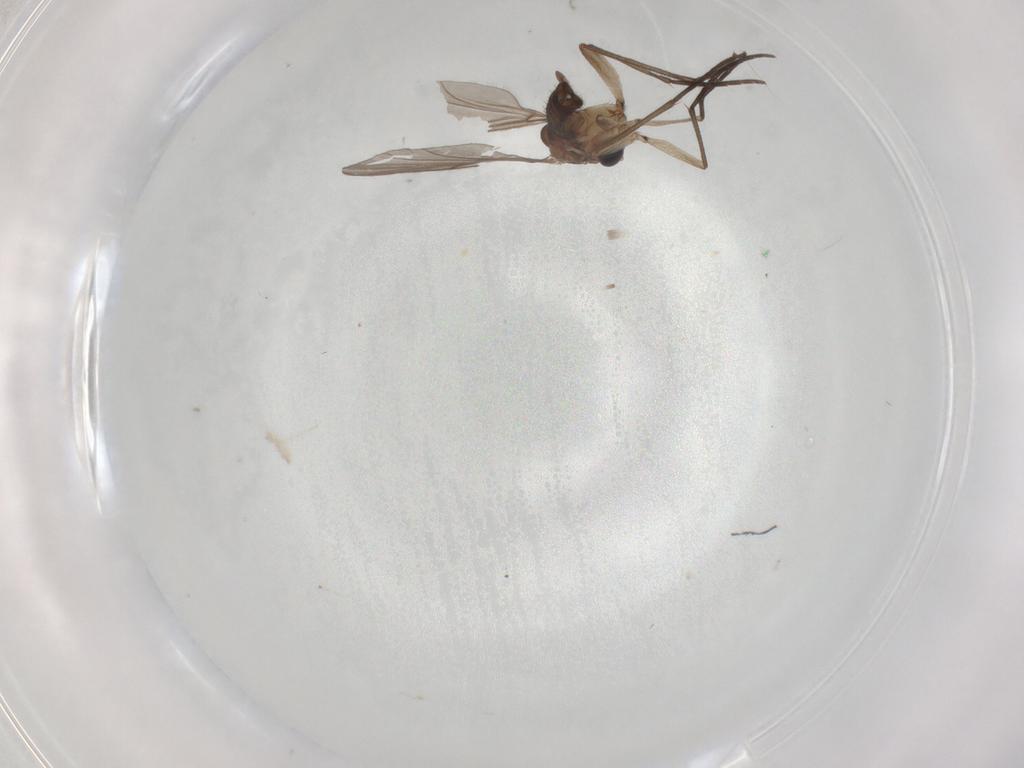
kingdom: Animalia
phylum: Arthropoda
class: Insecta
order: Diptera
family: Sciaridae
